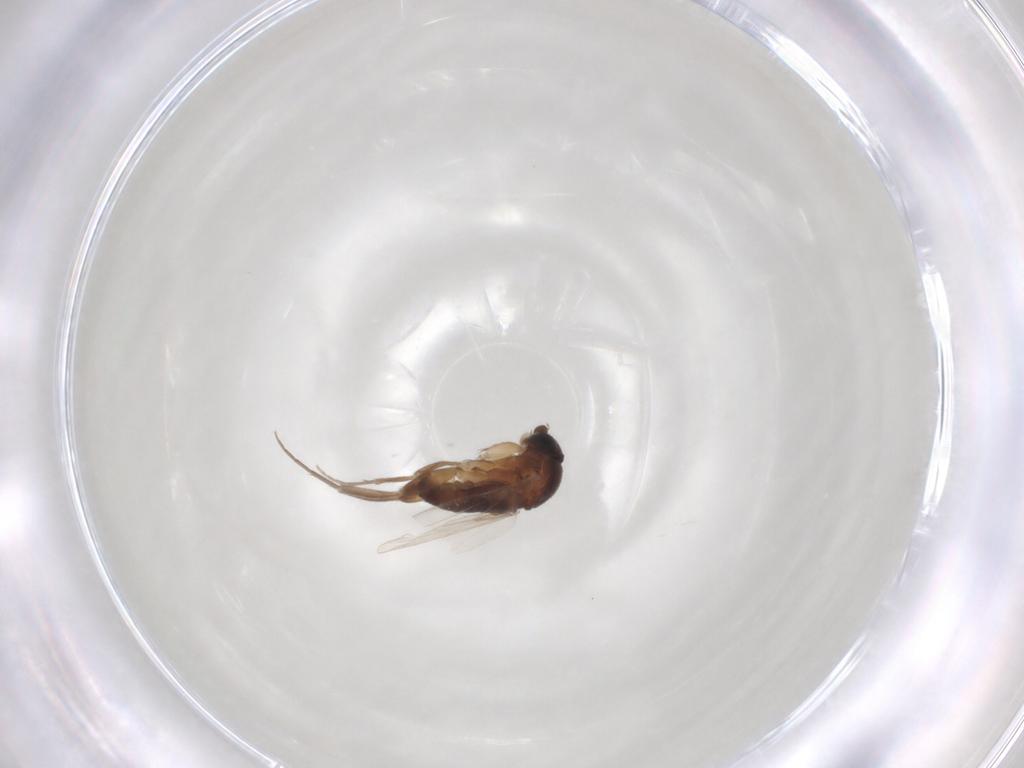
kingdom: Animalia
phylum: Arthropoda
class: Insecta
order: Diptera
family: Phoridae
